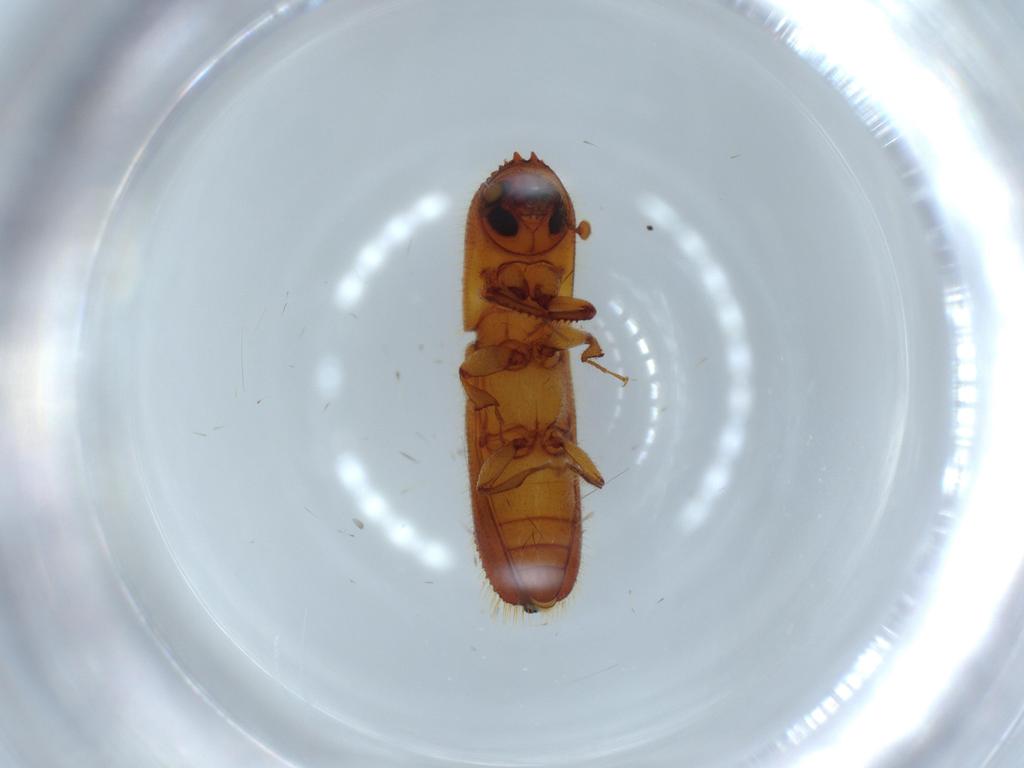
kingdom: Animalia
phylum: Arthropoda
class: Insecta
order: Coleoptera
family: Curculionidae
